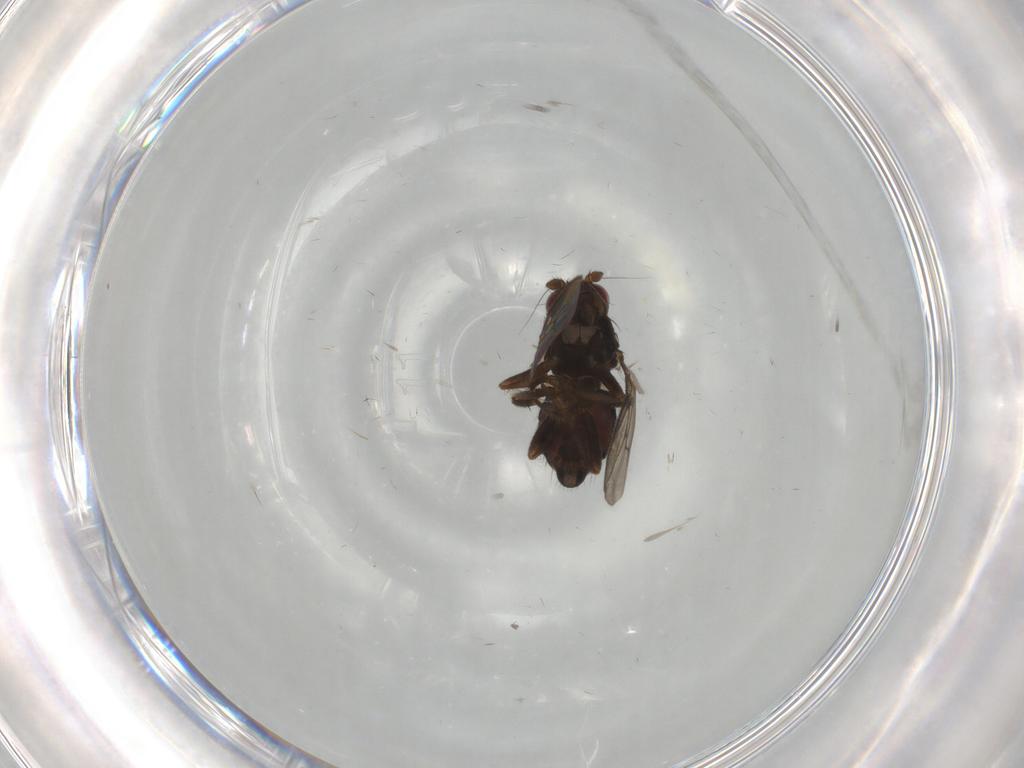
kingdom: Animalia
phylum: Arthropoda
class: Insecta
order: Diptera
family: Sphaeroceridae
